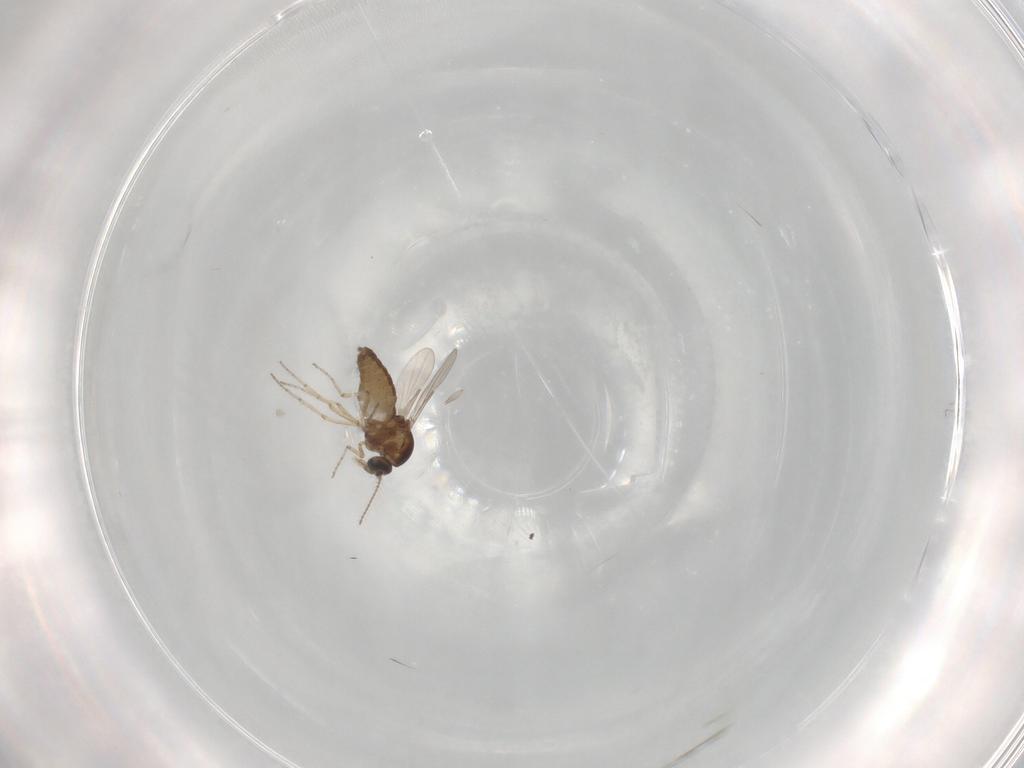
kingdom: Animalia
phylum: Arthropoda
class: Insecta
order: Diptera
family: Ceratopogonidae
